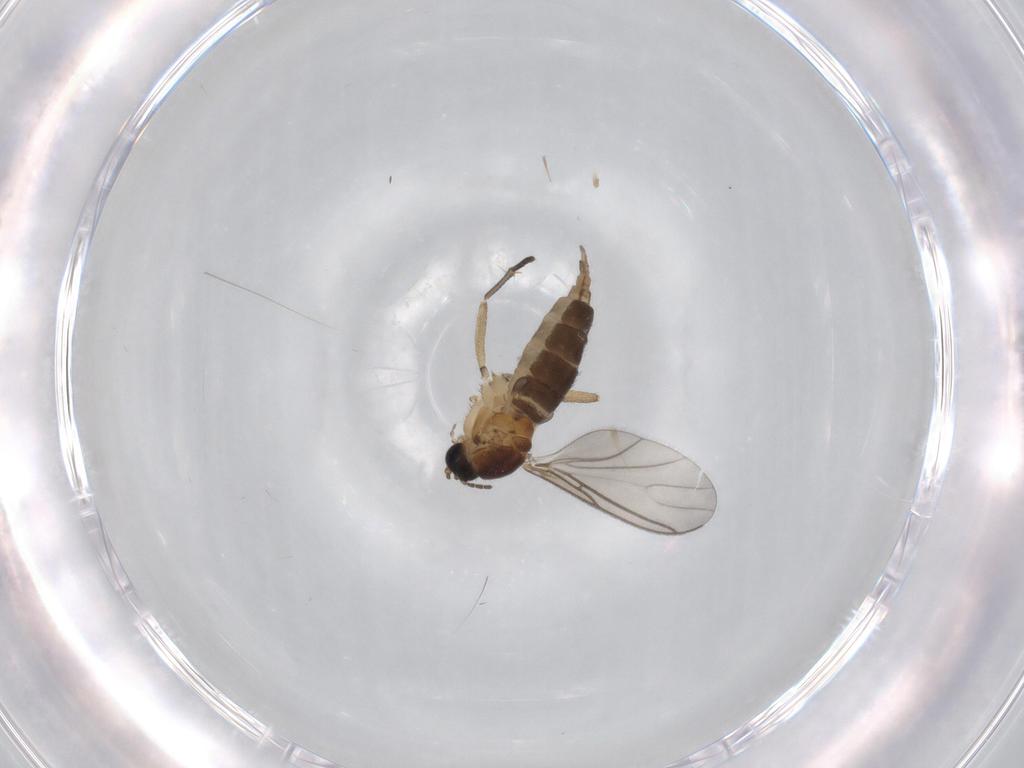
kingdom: Animalia
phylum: Arthropoda
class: Insecta
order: Diptera
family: Sciaridae
